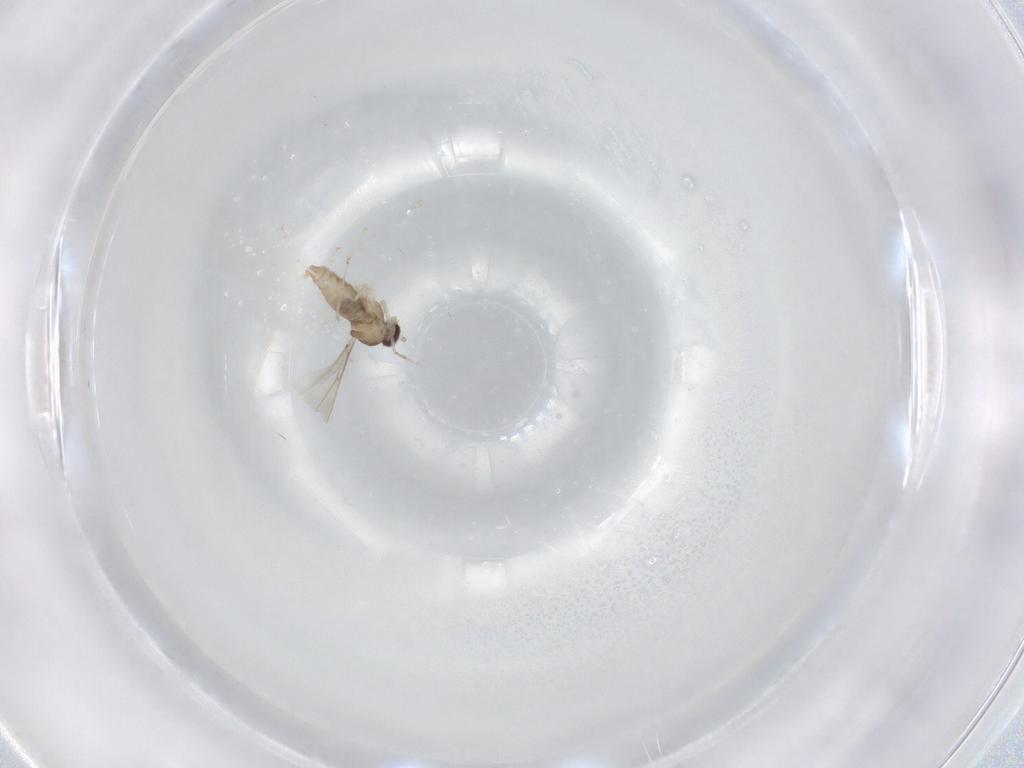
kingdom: Animalia
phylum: Arthropoda
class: Insecta
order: Diptera
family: Cecidomyiidae
